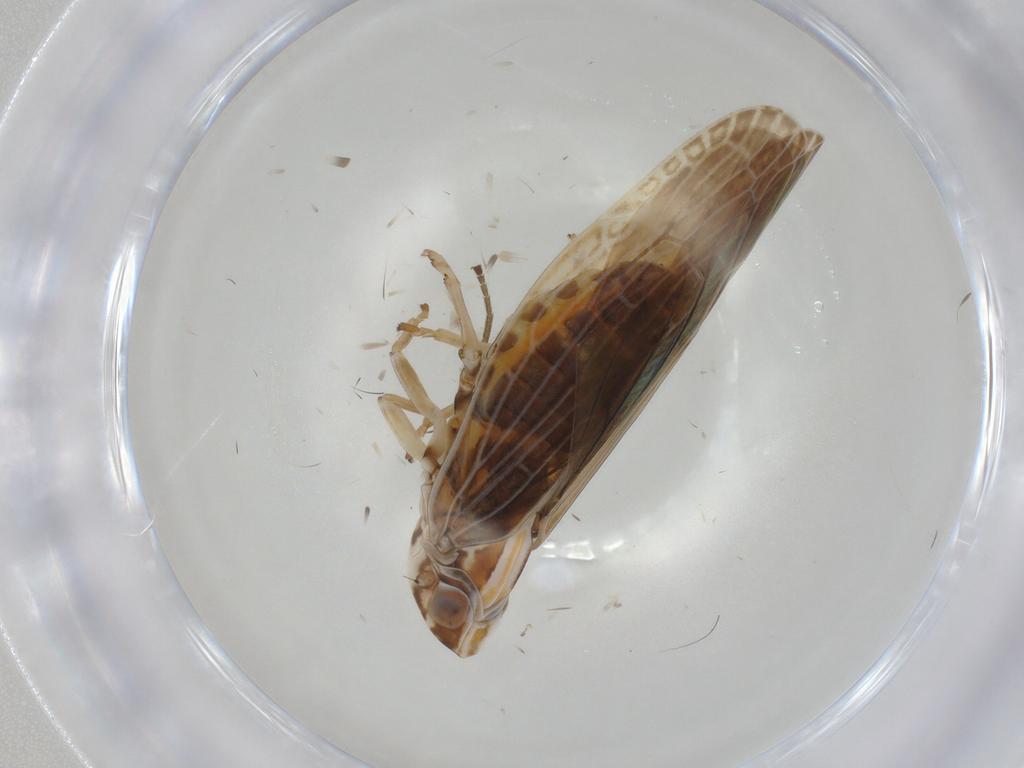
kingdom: Animalia
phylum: Arthropoda
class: Insecta
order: Hemiptera
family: Achilidae
